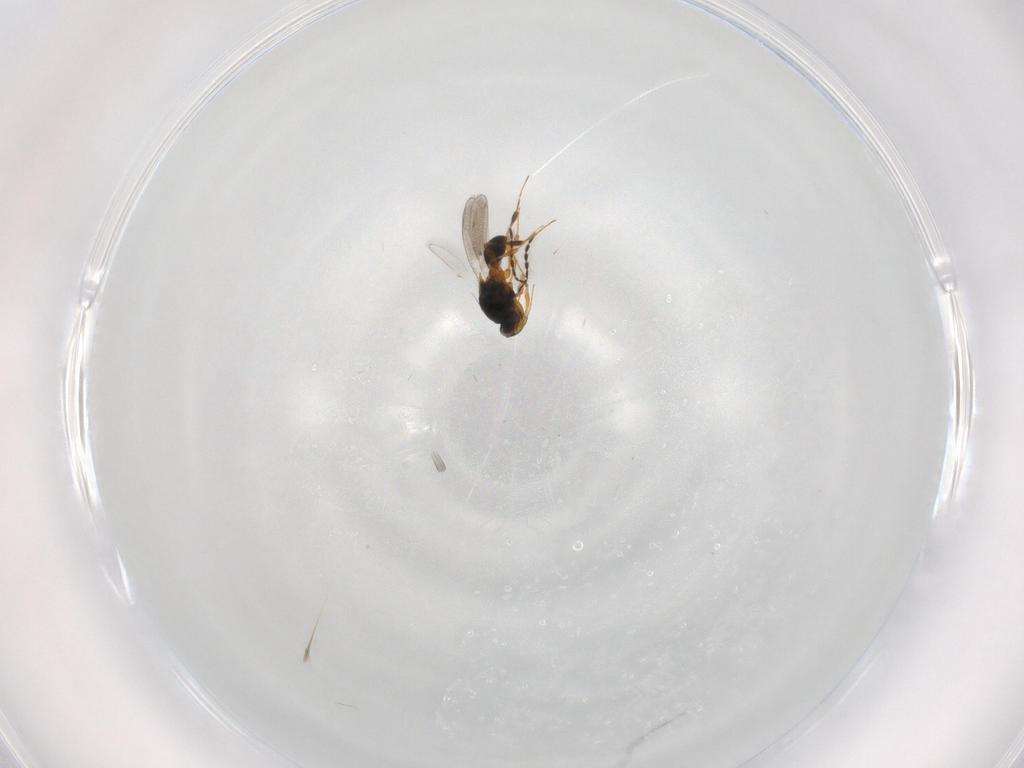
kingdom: Animalia
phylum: Arthropoda
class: Insecta
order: Hymenoptera
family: Platygastridae
